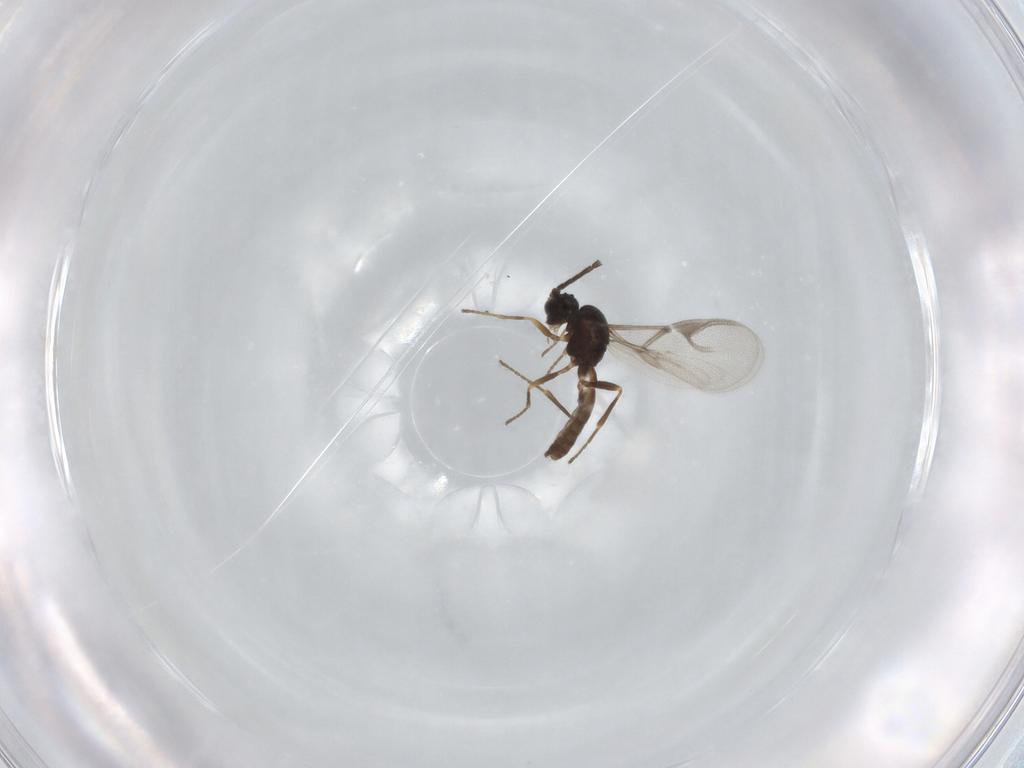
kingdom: Animalia
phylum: Arthropoda
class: Insecta
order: Hymenoptera
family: Braconidae
